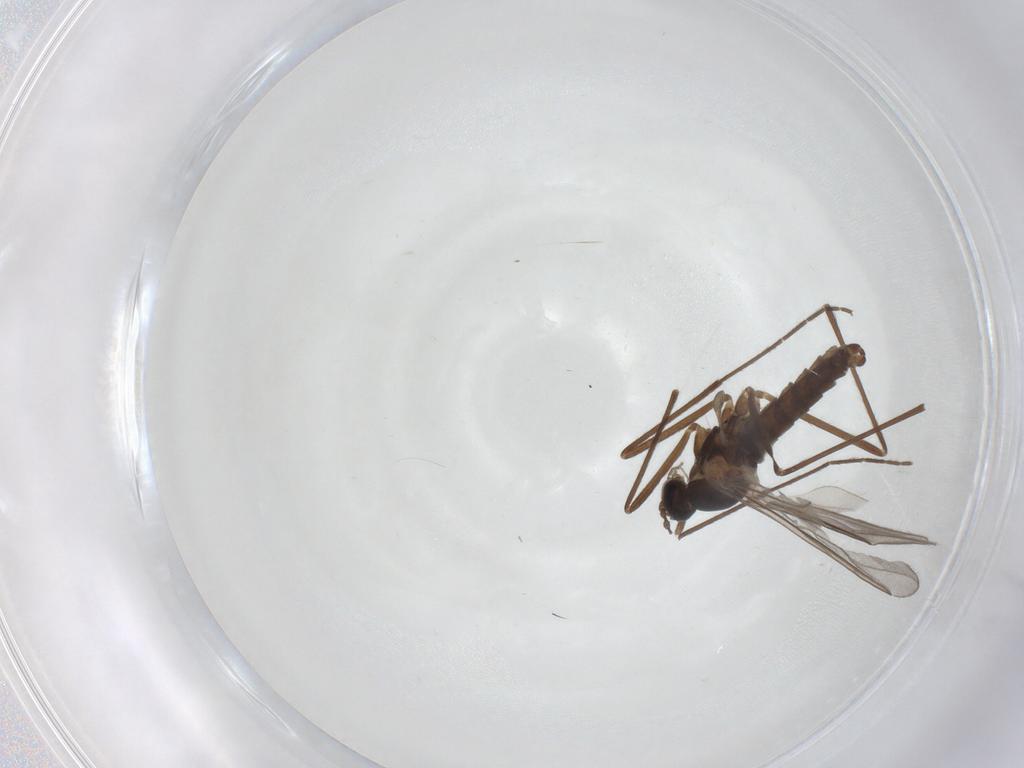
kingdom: Animalia
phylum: Arthropoda
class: Insecta
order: Diptera
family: Cecidomyiidae
